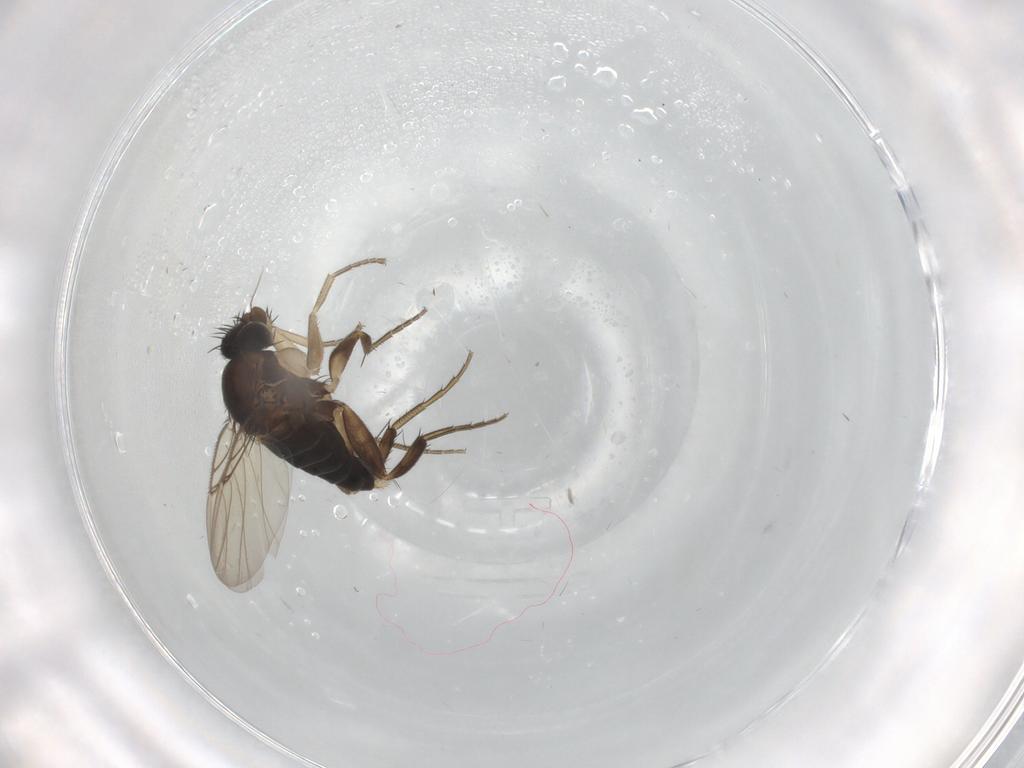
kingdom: Animalia
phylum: Arthropoda
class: Insecta
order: Diptera
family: Phoridae
